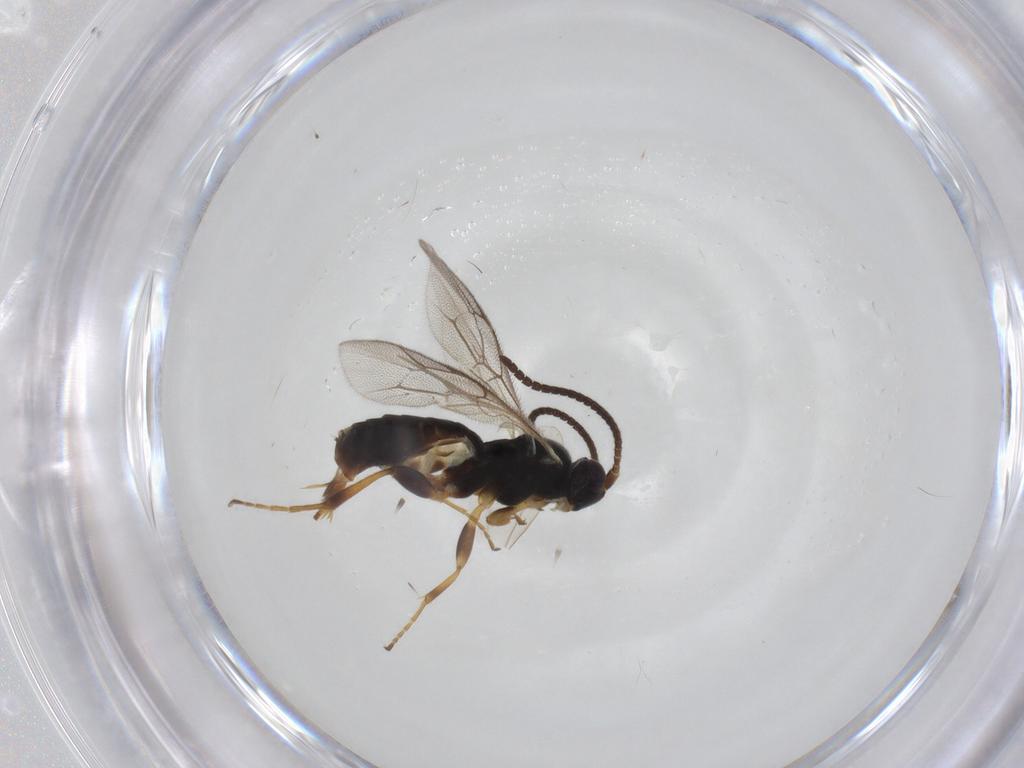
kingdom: Animalia
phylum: Arthropoda
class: Insecta
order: Hymenoptera
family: Ichneumonidae
